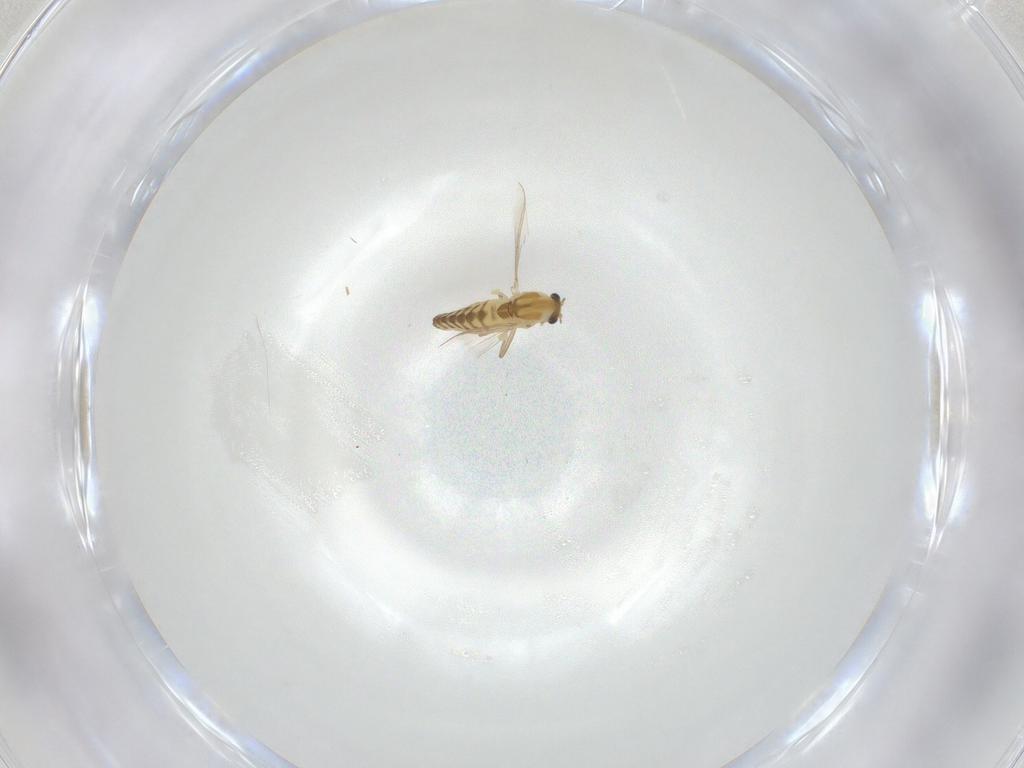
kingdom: Animalia
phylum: Arthropoda
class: Insecta
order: Diptera
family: Chironomidae
